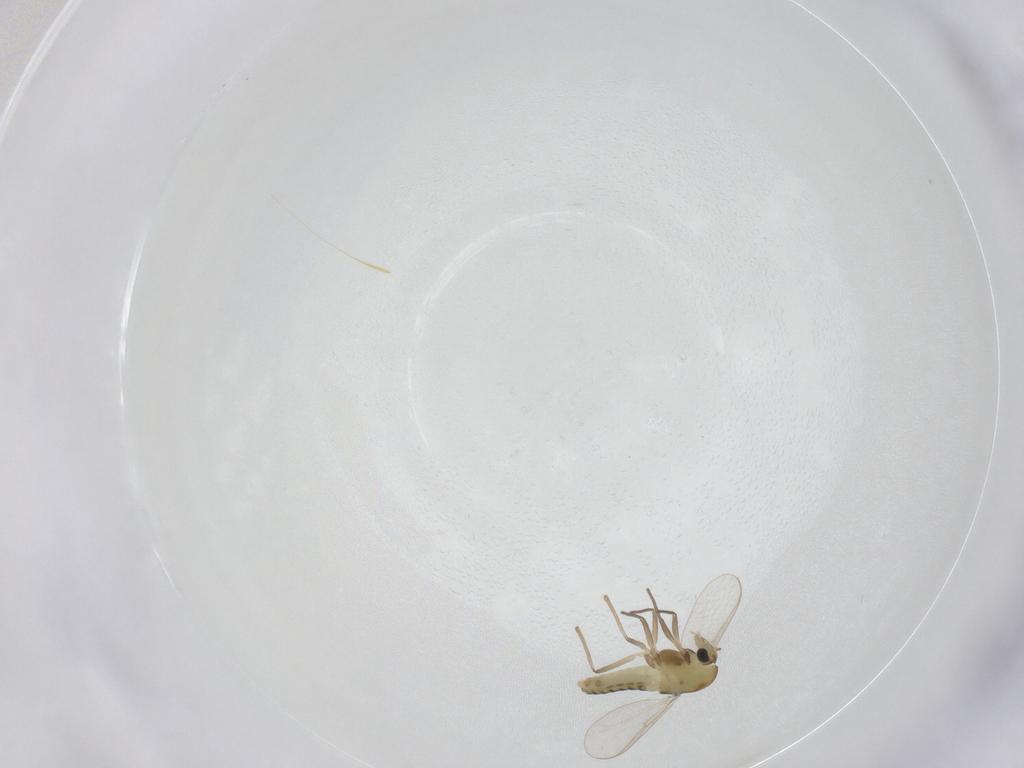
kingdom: Animalia
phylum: Arthropoda
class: Insecta
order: Diptera
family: Chironomidae
